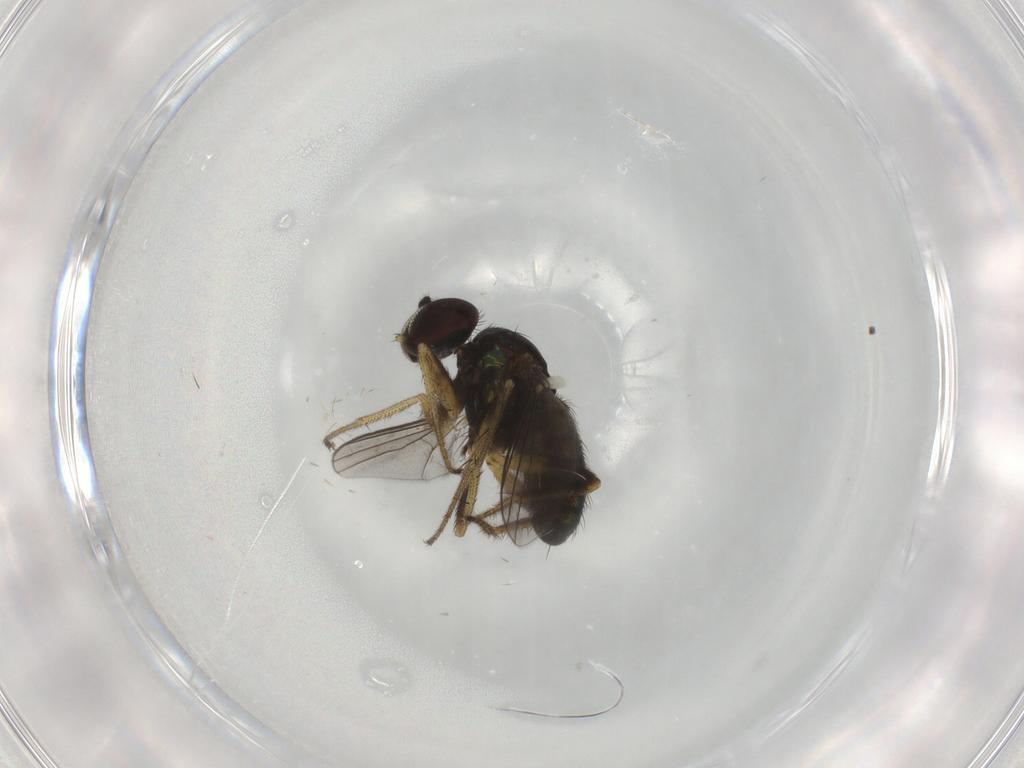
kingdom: Animalia
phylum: Arthropoda
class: Insecta
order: Diptera
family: Dolichopodidae
